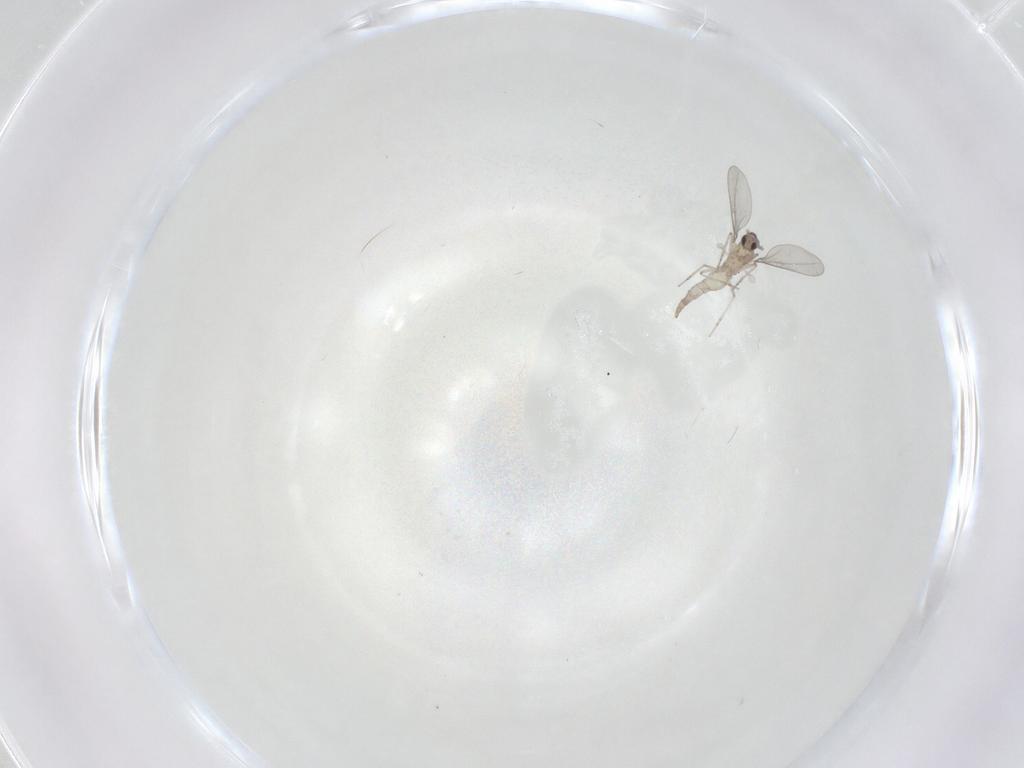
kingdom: Animalia
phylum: Arthropoda
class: Insecta
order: Diptera
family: Cecidomyiidae
